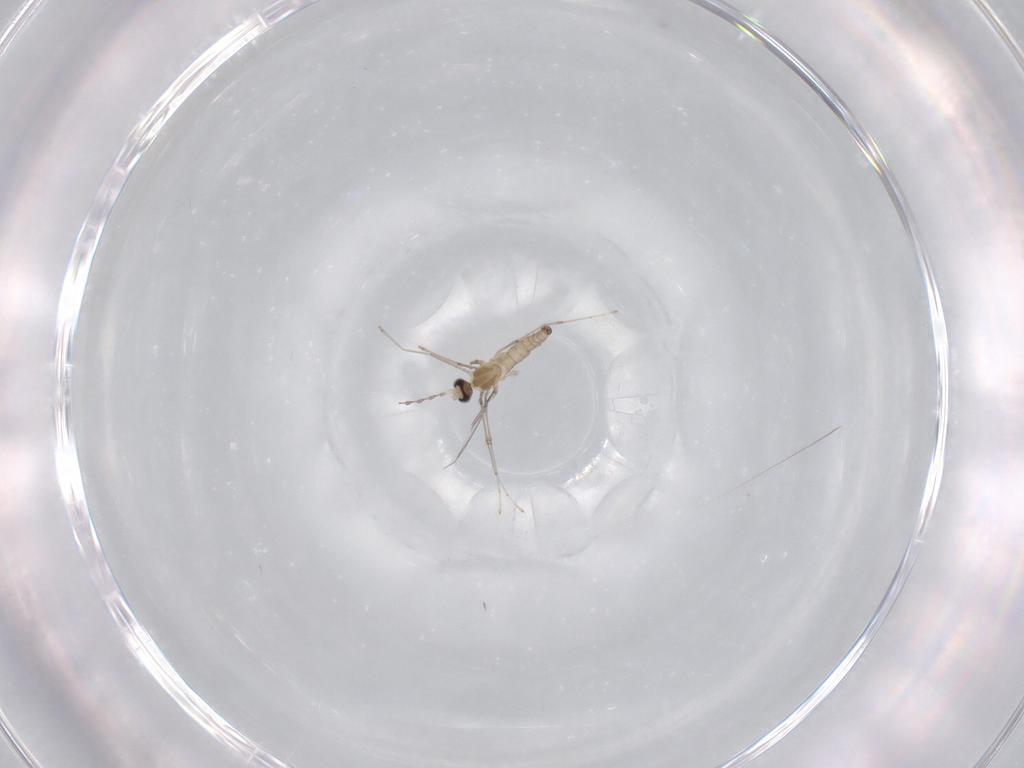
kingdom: Animalia
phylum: Arthropoda
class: Insecta
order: Diptera
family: Cecidomyiidae
